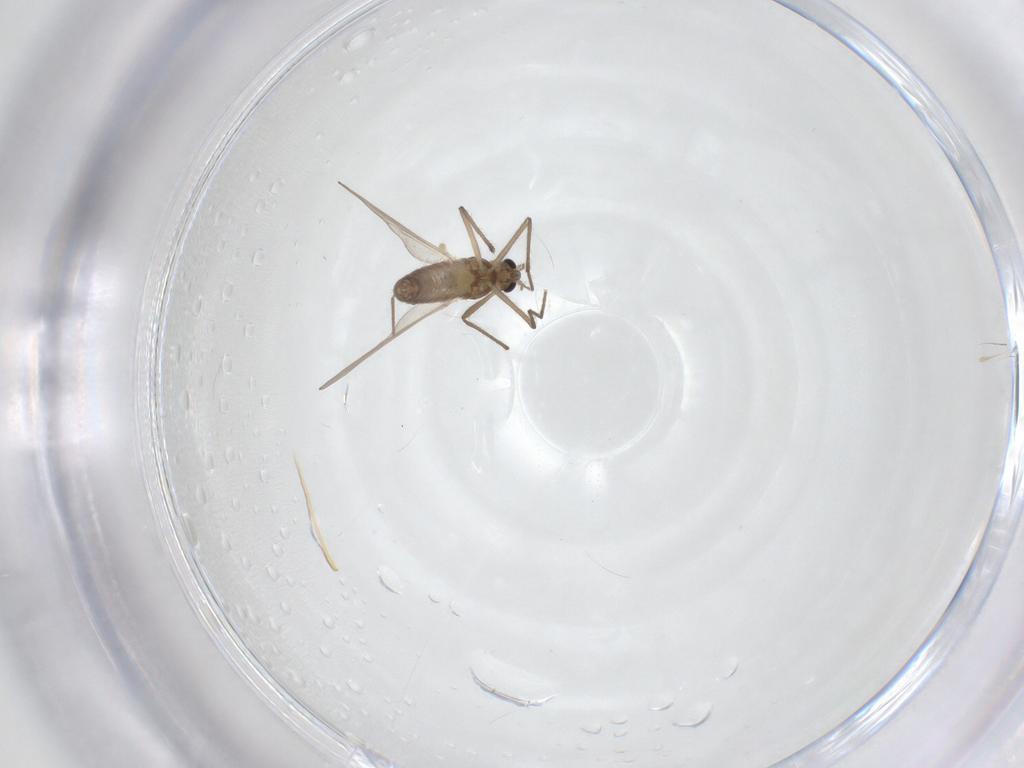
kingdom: Animalia
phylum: Arthropoda
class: Insecta
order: Diptera
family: Chironomidae
